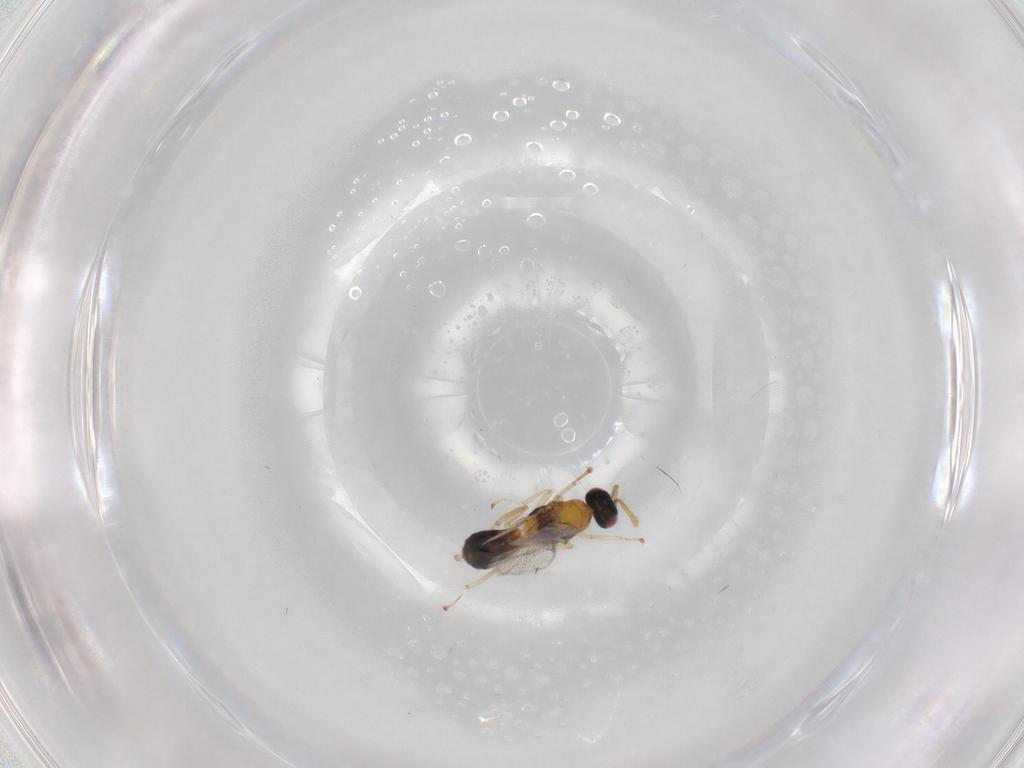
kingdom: Animalia
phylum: Arthropoda
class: Insecta
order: Hymenoptera
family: Torymidae
